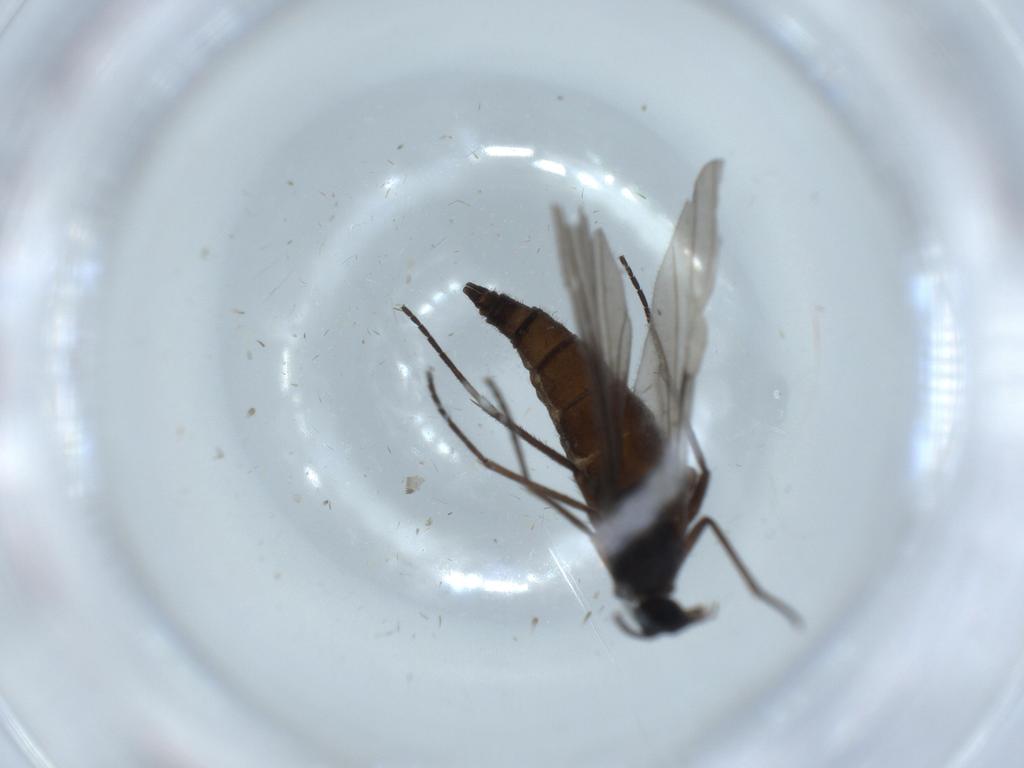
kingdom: Animalia
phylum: Arthropoda
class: Insecta
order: Diptera
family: Sciaridae
